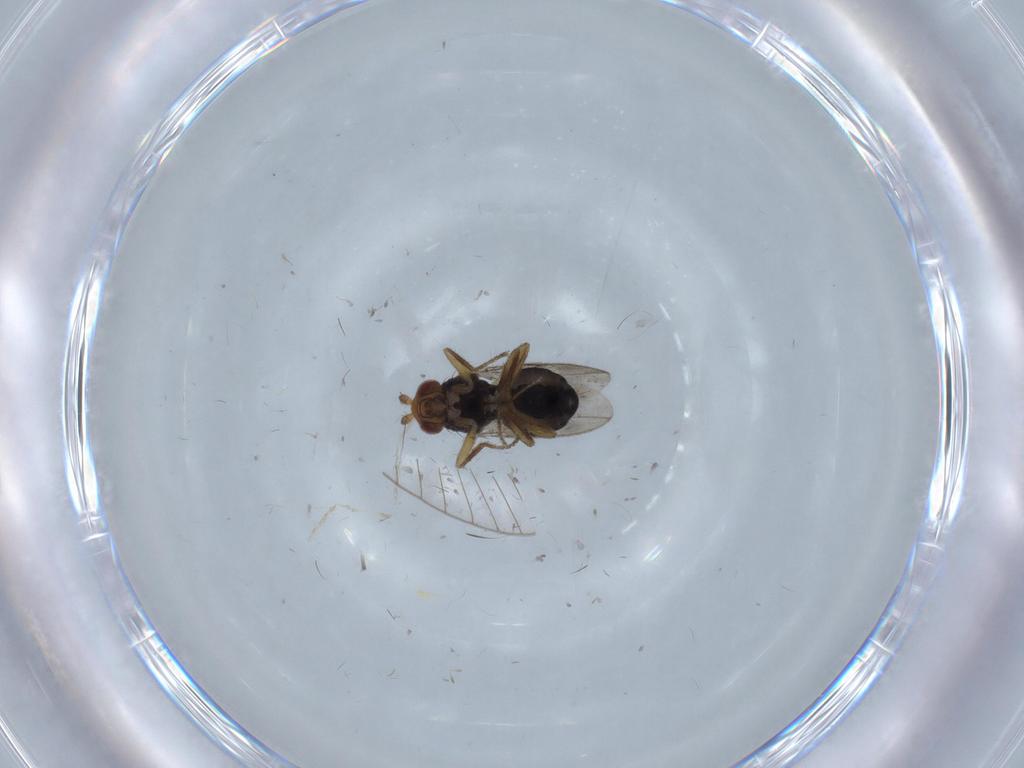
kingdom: Animalia
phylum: Arthropoda
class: Insecta
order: Diptera
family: Sphaeroceridae
